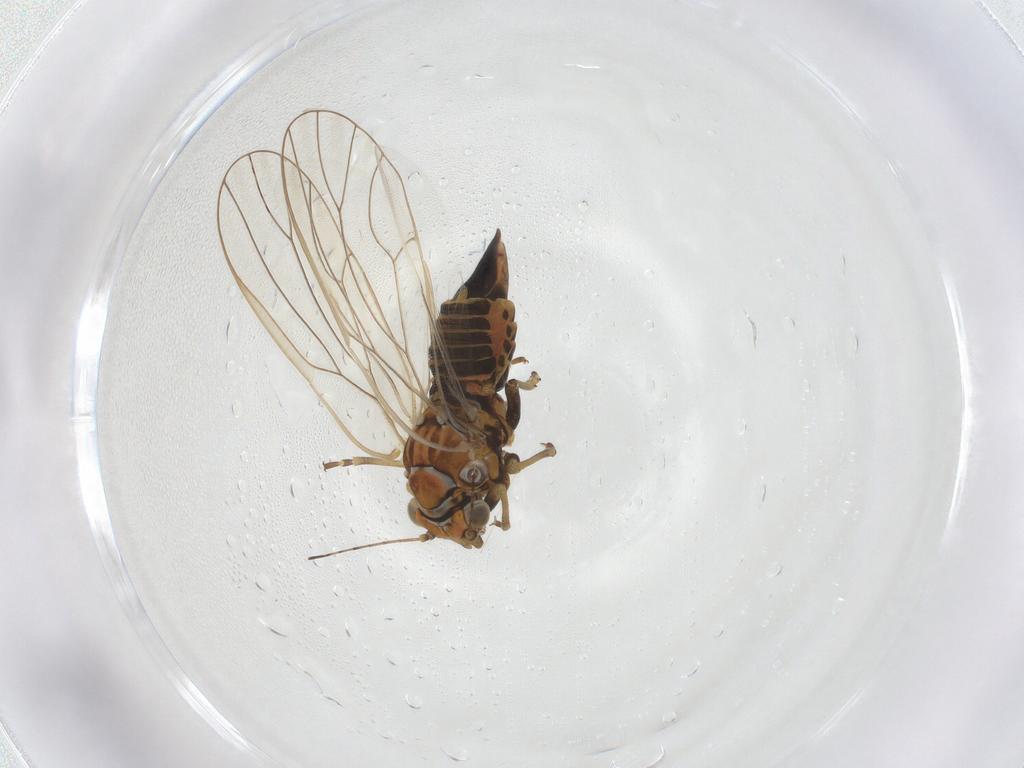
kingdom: Animalia
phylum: Arthropoda
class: Insecta
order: Hemiptera
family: Psyllidae
